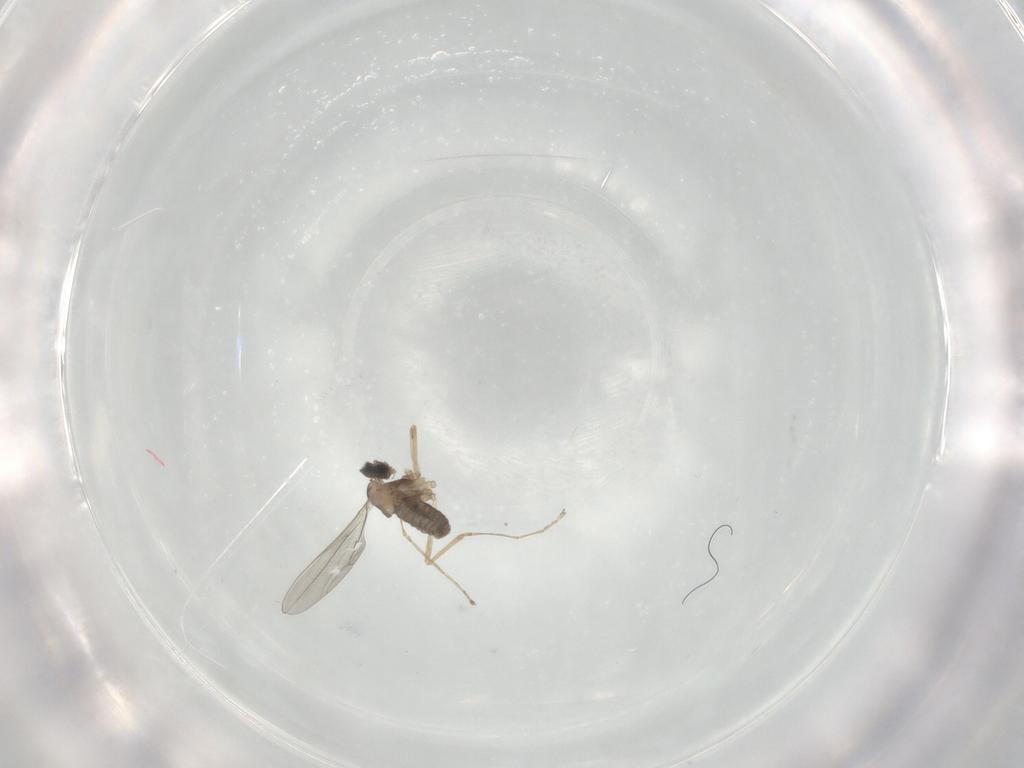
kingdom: Animalia
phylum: Arthropoda
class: Insecta
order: Diptera
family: Cecidomyiidae
